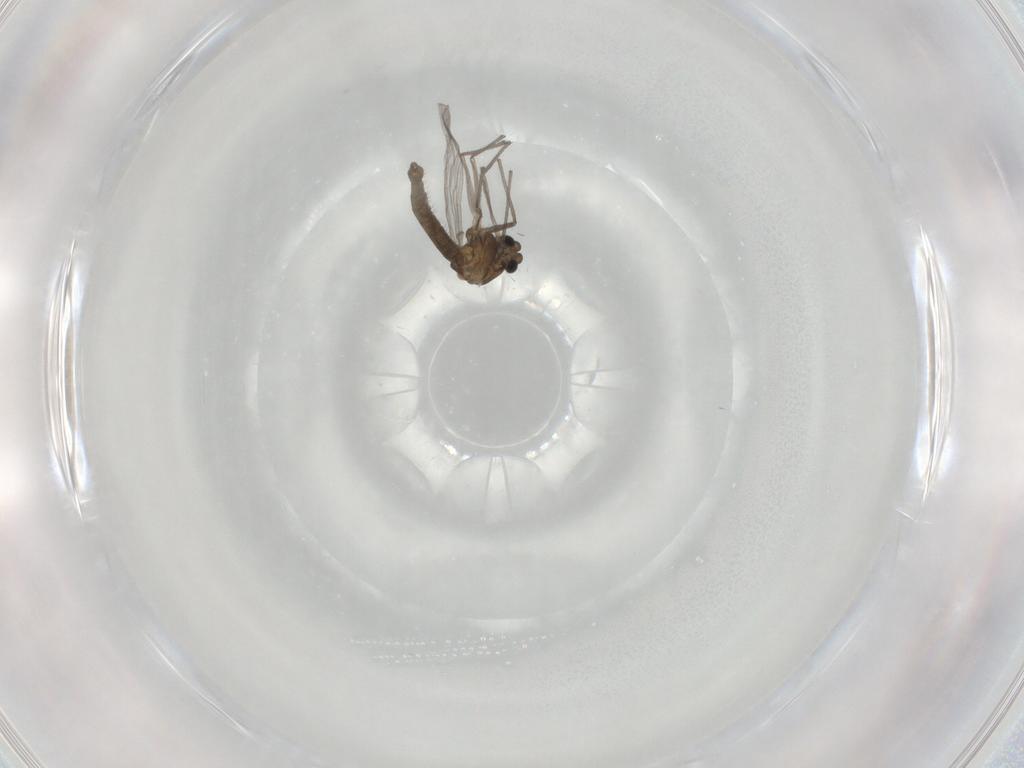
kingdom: Animalia
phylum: Arthropoda
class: Insecta
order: Diptera
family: Chironomidae
